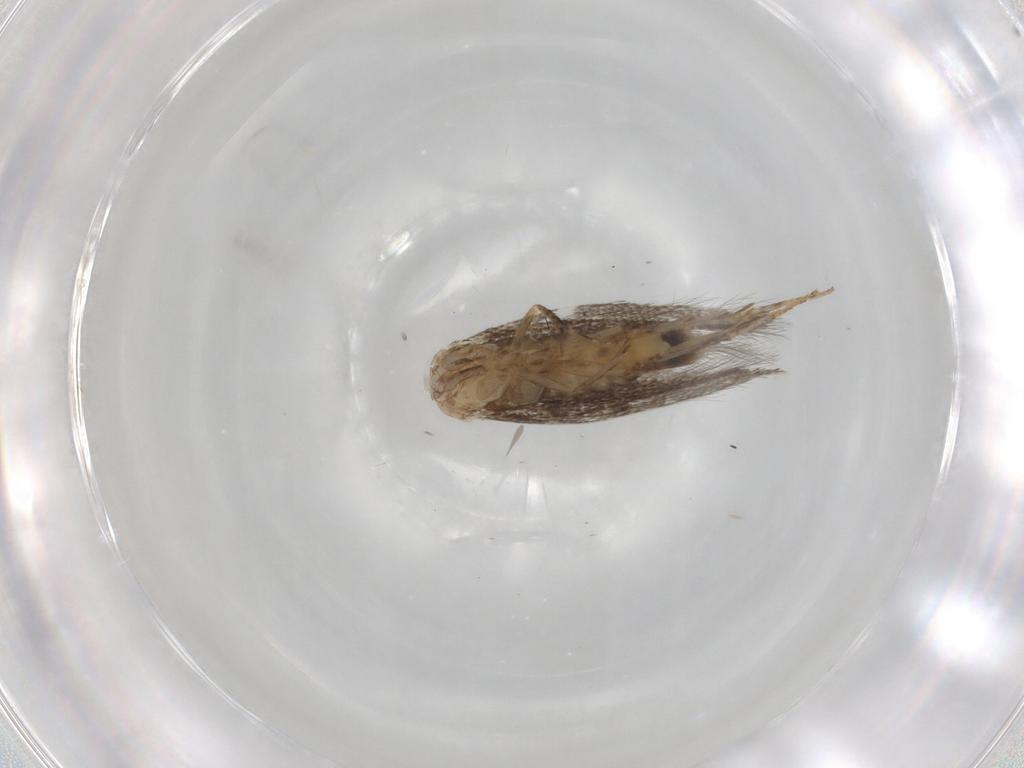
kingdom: Animalia
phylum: Arthropoda
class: Insecta
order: Lepidoptera
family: Elachistidae
